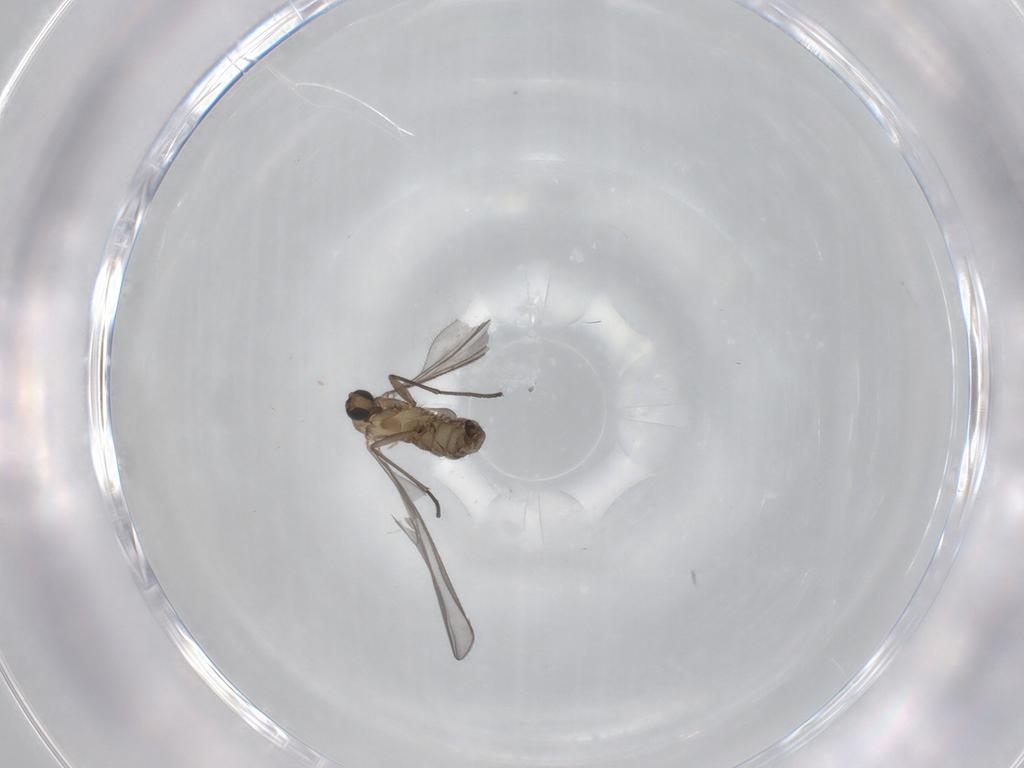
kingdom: Animalia
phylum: Arthropoda
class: Insecta
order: Diptera
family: Sciaridae
